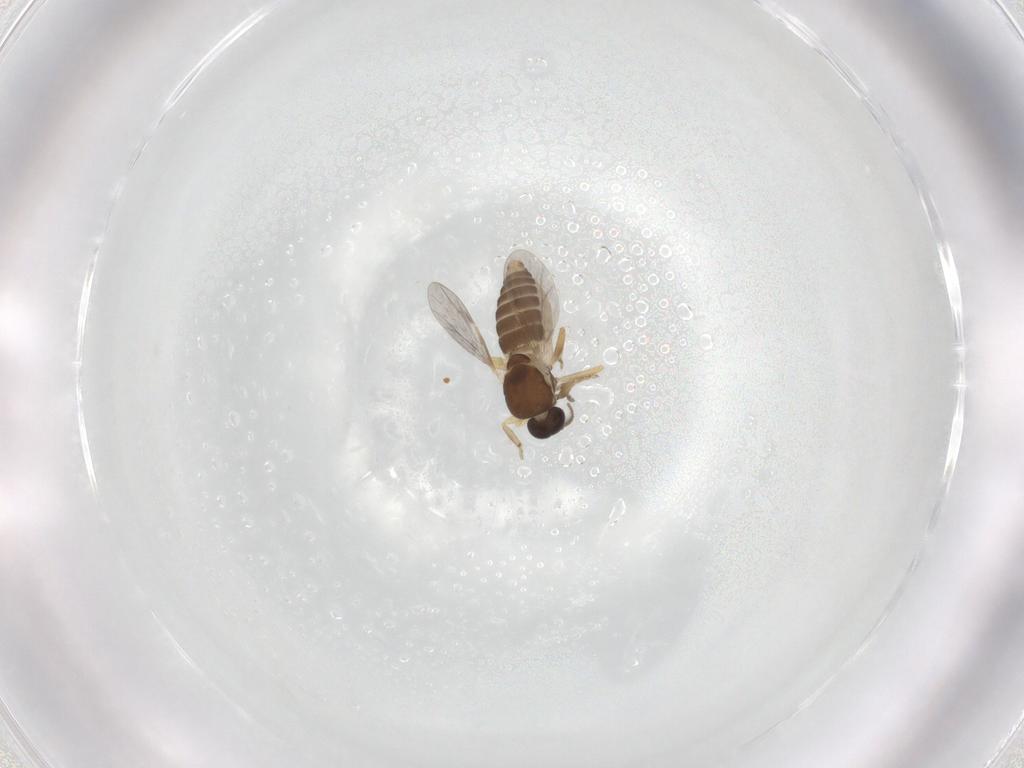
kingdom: Animalia
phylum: Arthropoda
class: Insecta
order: Diptera
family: Ceratopogonidae
